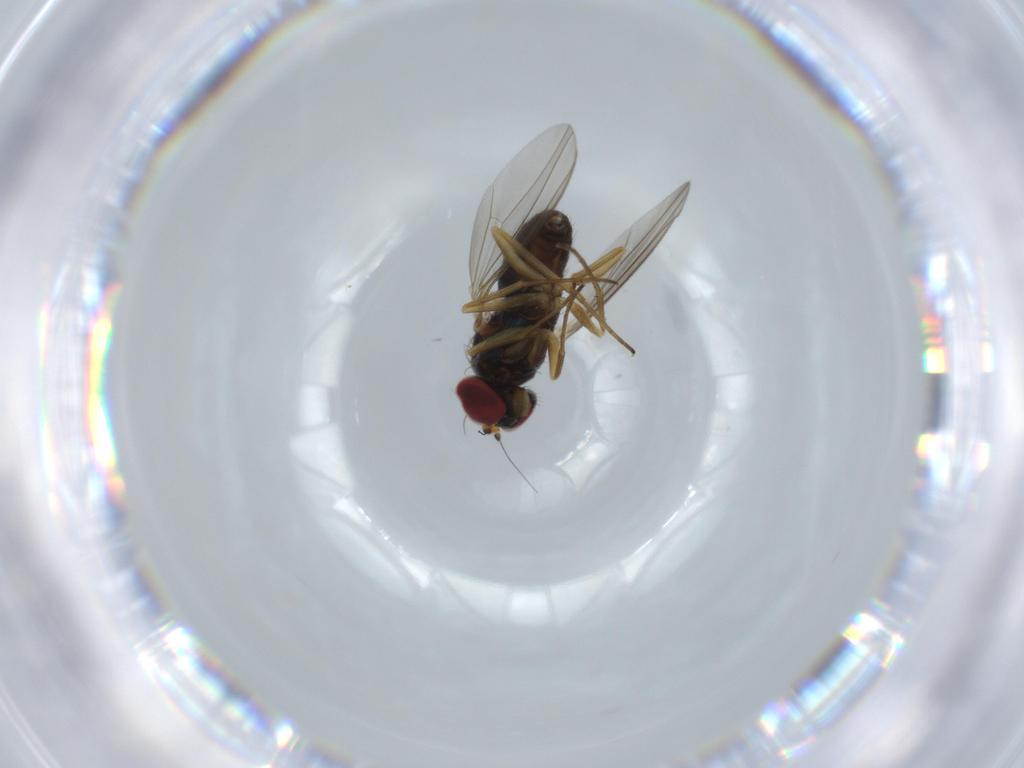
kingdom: Animalia
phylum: Arthropoda
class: Insecta
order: Diptera
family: Dolichopodidae
